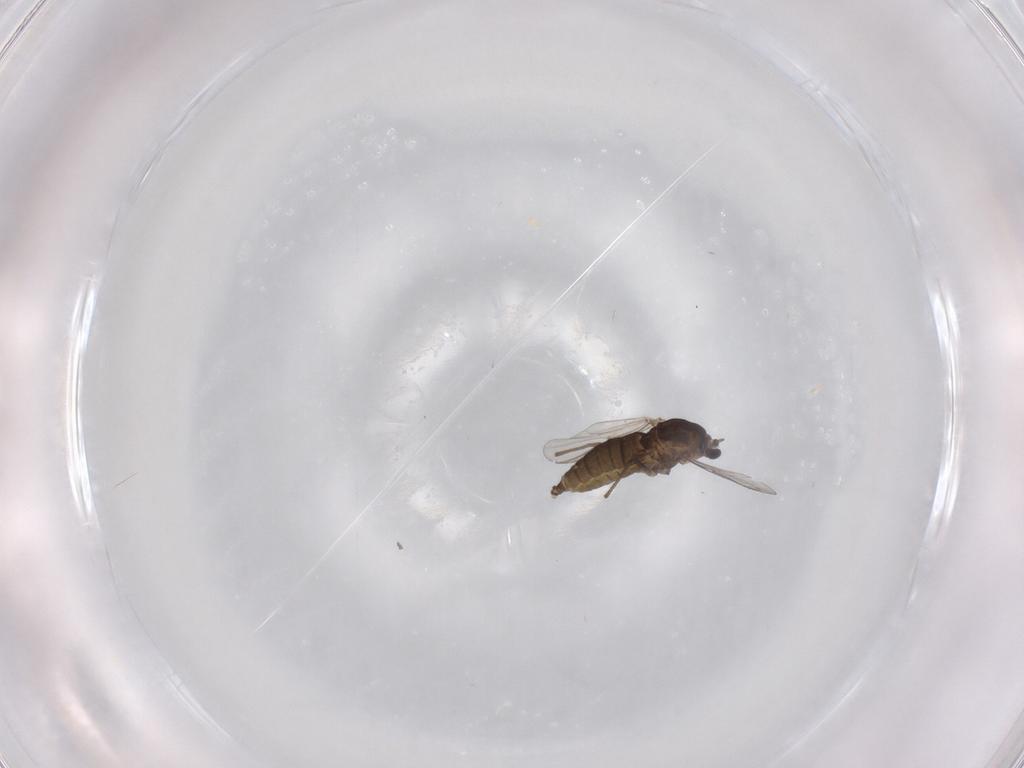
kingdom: Animalia
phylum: Arthropoda
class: Insecta
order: Diptera
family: Chironomidae
